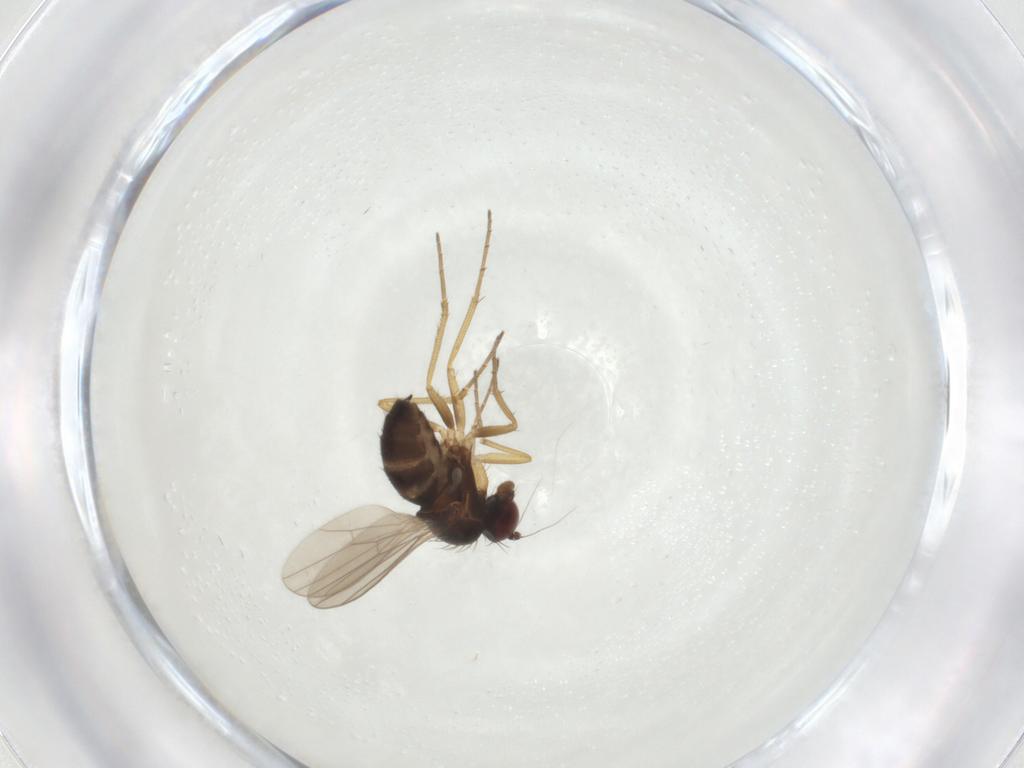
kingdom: Animalia
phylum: Arthropoda
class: Insecta
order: Diptera
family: Dolichopodidae
